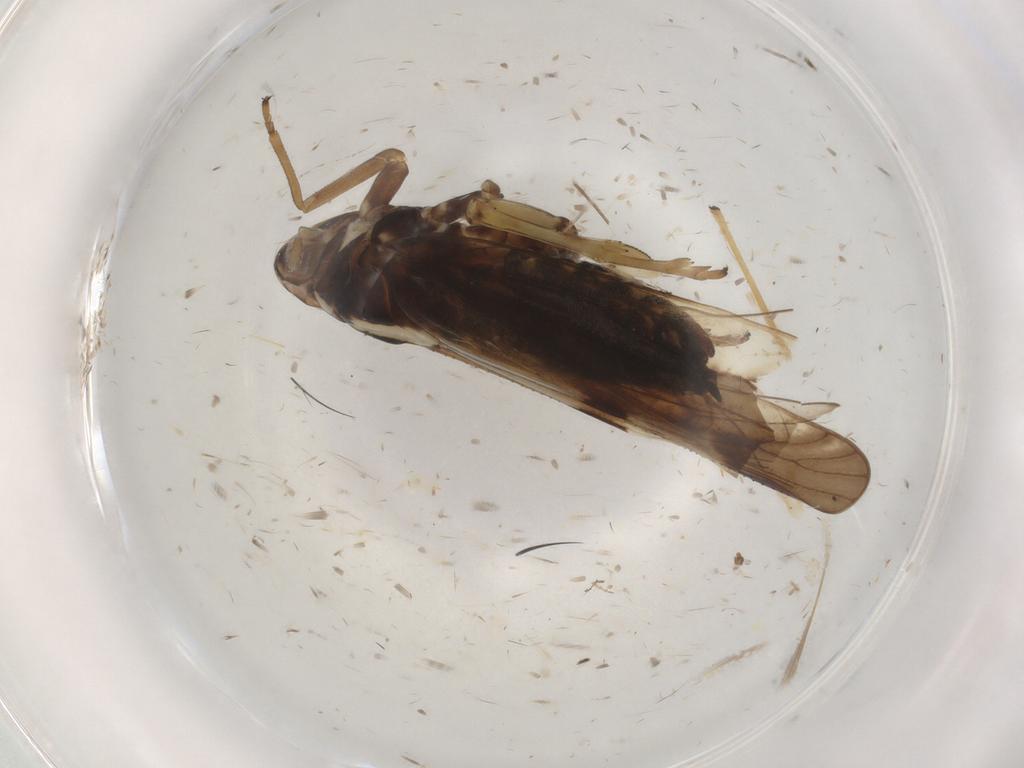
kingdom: Animalia
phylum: Arthropoda
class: Insecta
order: Hemiptera
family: Delphacidae
